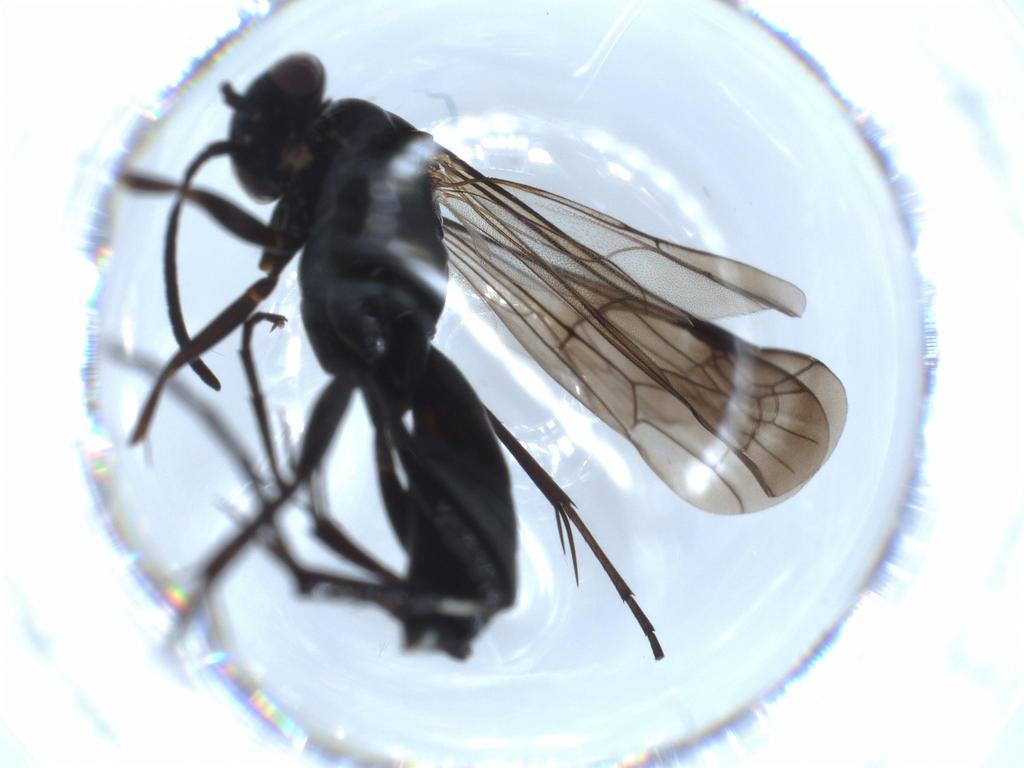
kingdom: Animalia
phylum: Arthropoda
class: Insecta
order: Hymenoptera
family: Pompilidae
